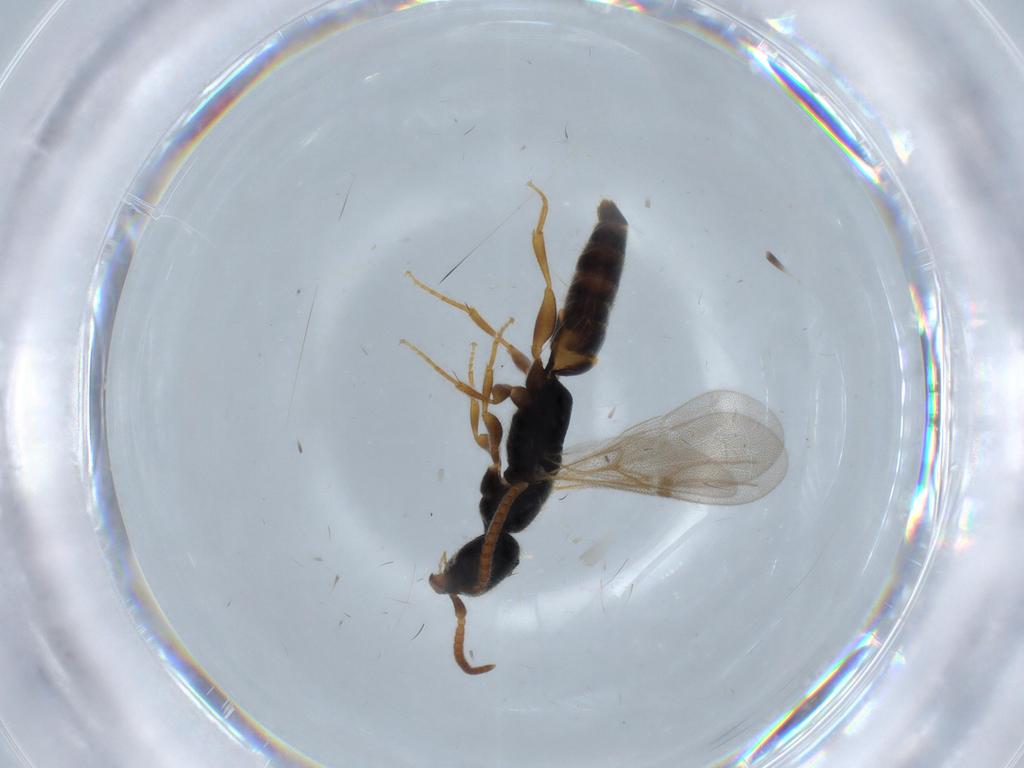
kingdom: Animalia
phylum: Arthropoda
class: Insecta
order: Hymenoptera
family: Bethylidae
